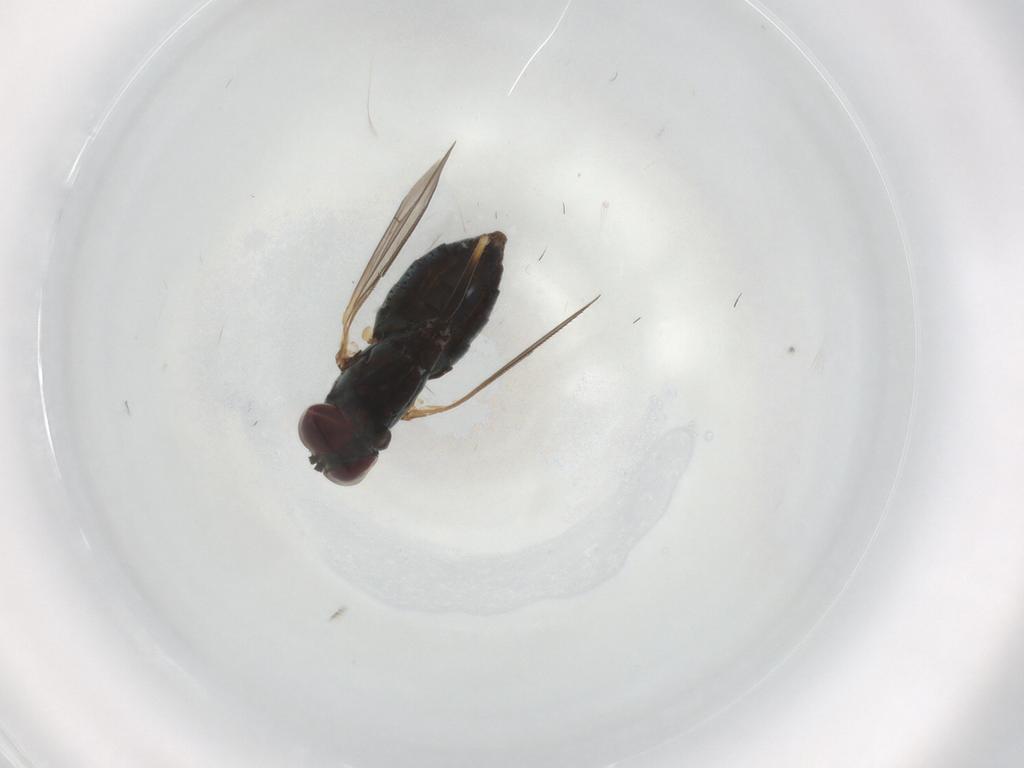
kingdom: Animalia
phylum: Arthropoda
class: Insecta
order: Diptera
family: Dolichopodidae
